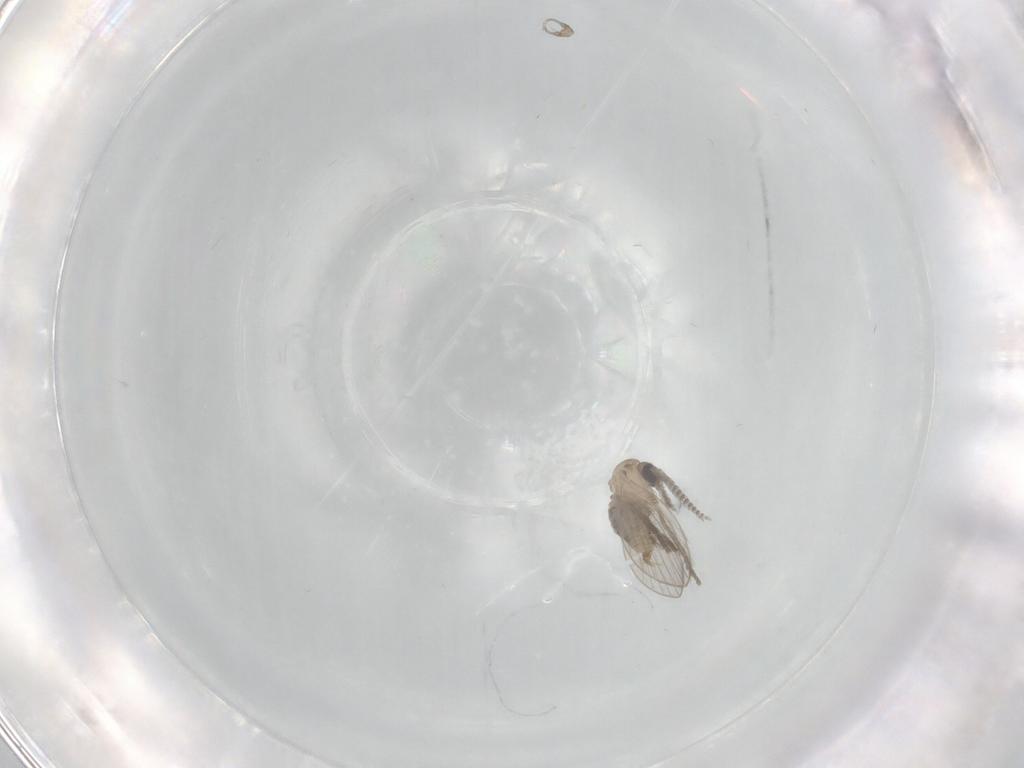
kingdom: Animalia
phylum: Arthropoda
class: Insecta
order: Diptera
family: Psychodidae
